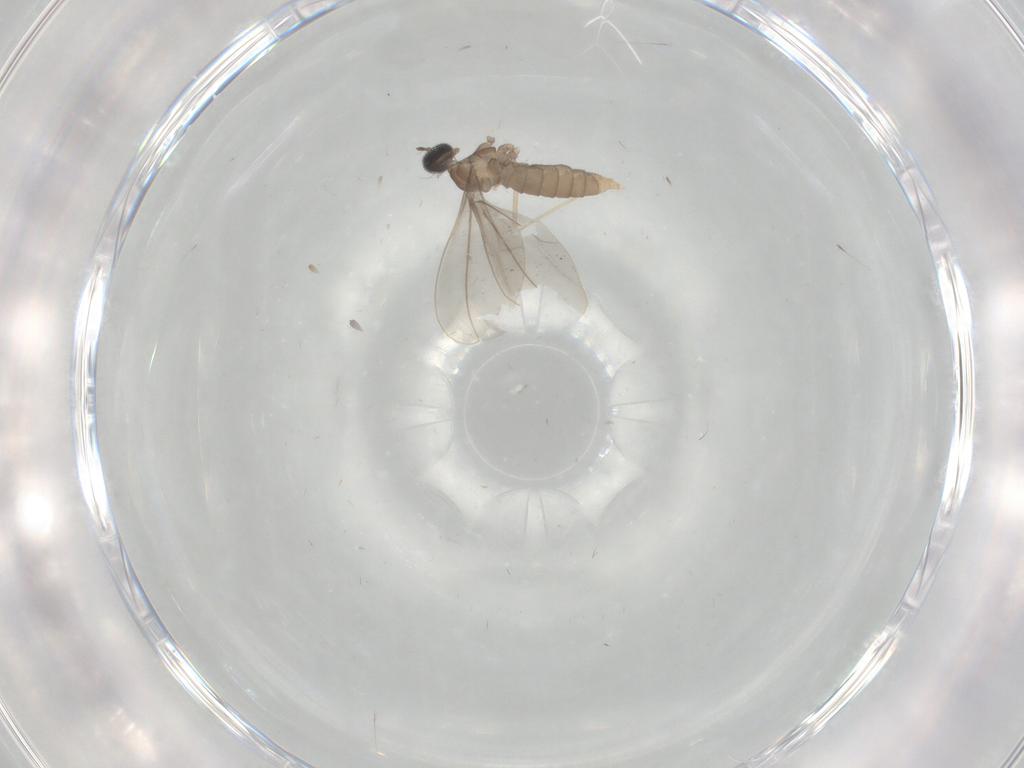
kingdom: Animalia
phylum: Arthropoda
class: Insecta
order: Diptera
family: Cecidomyiidae
